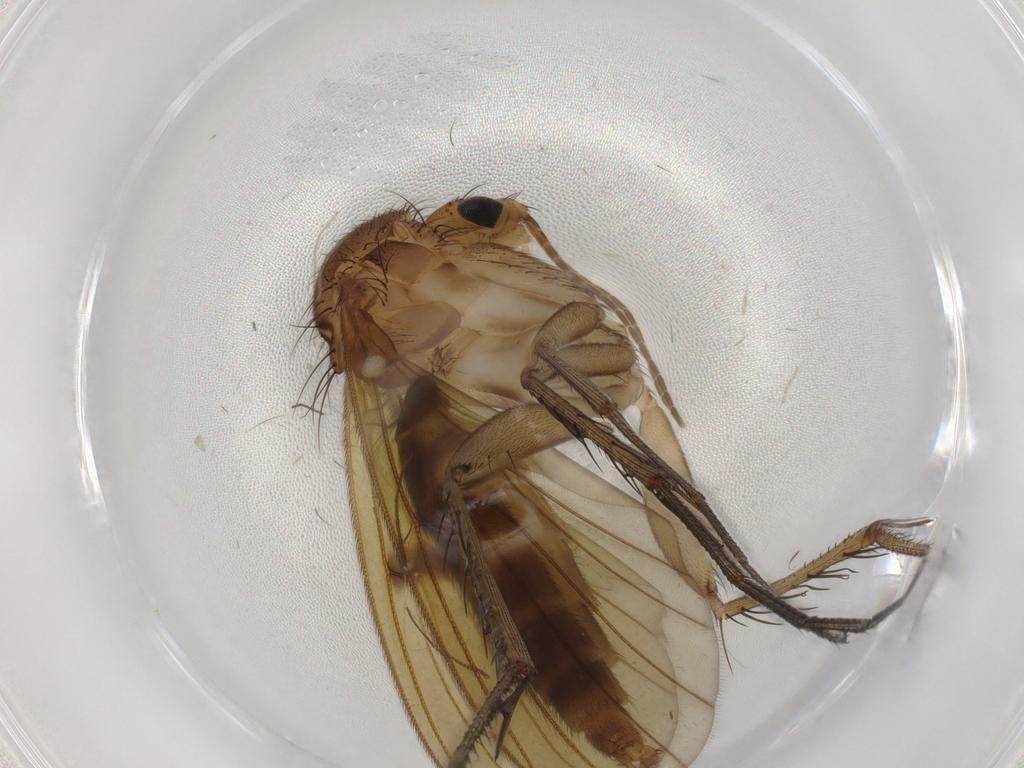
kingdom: Animalia
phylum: Arthropoda
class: Insecta
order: Diptera
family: Mycetophilidae
